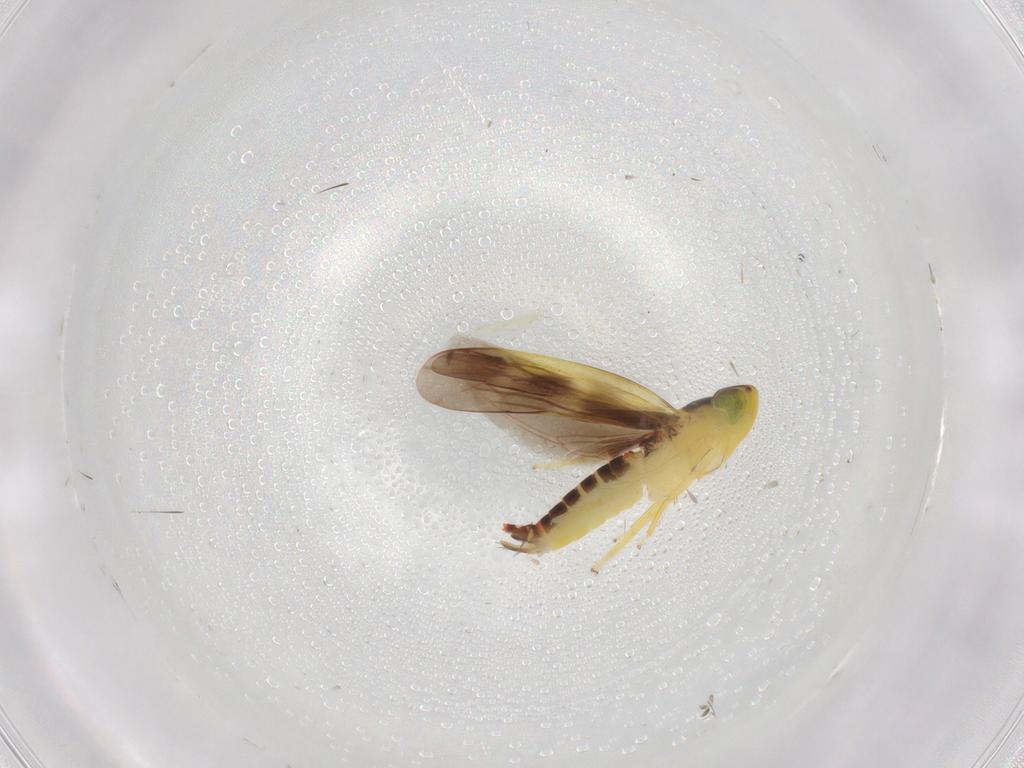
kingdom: Animalia
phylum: Arthropoda
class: Insecta
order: Hemiptera
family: Cicadellidae
